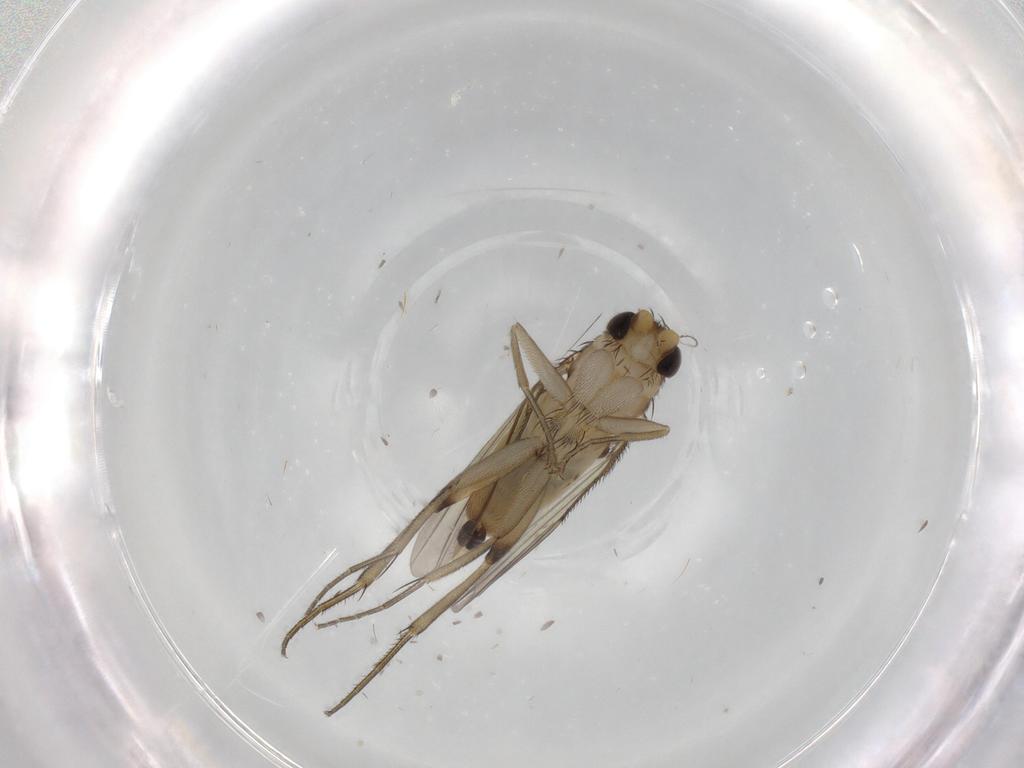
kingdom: Animalia
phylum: Arthropoda
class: Insecta
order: Diptera
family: Phoridae
